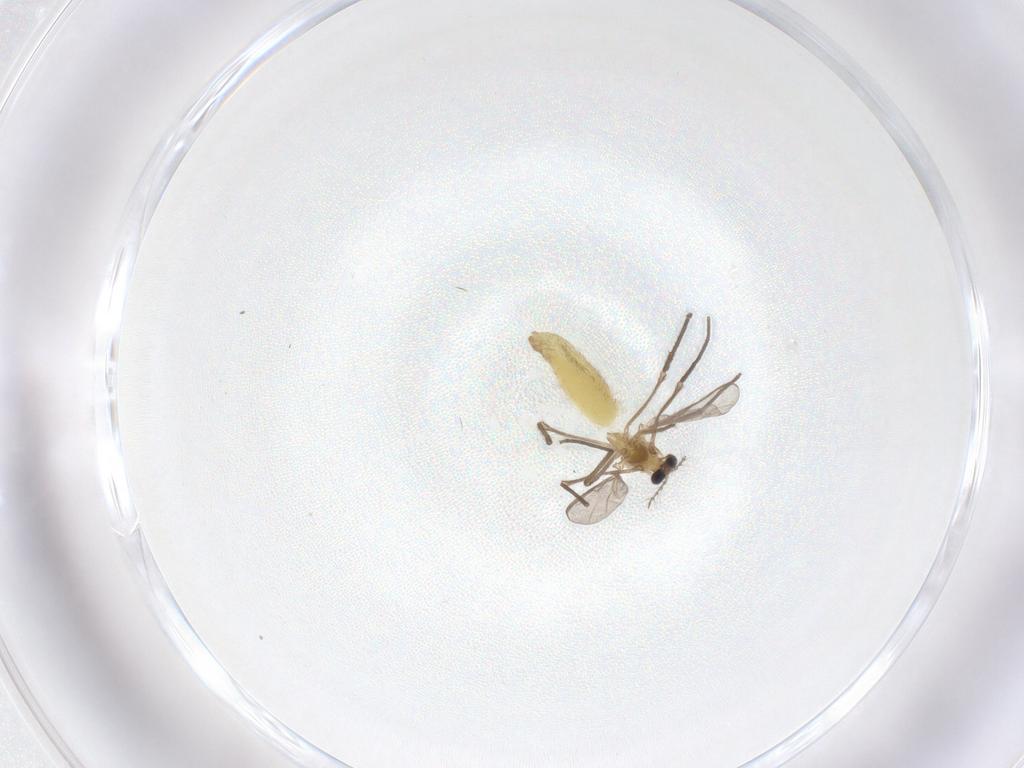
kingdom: Animalia
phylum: Arthropoda
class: Insecta
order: Diptera
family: Chironomidae
